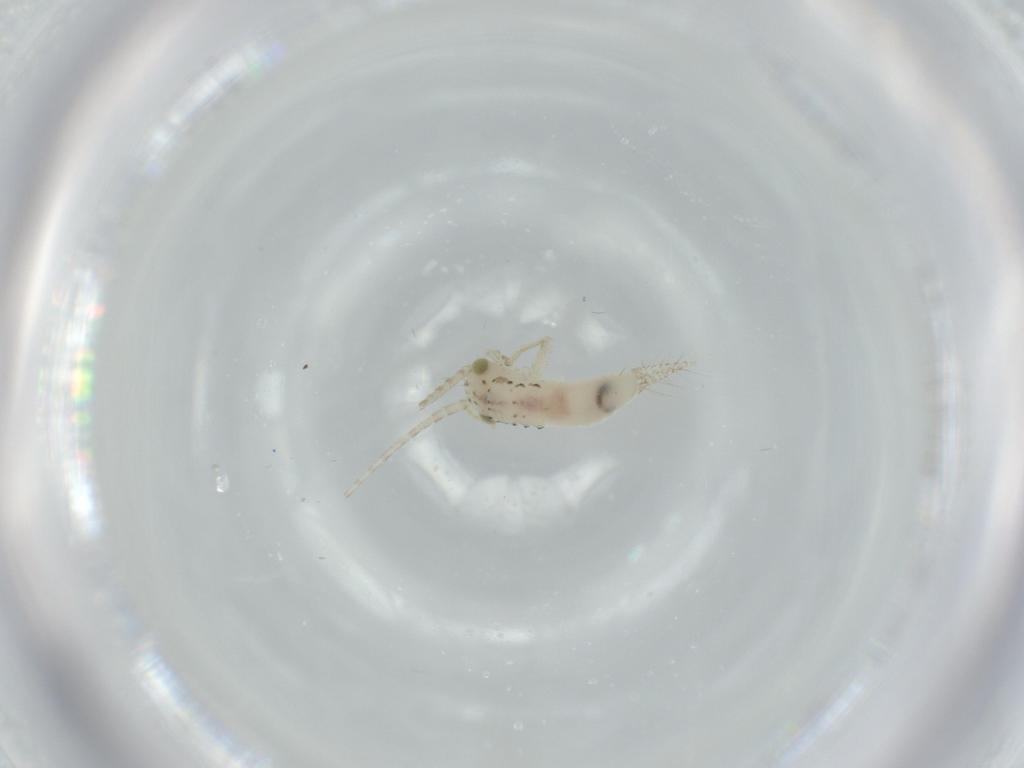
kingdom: Animalia
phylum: Arthropoda
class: Insecta
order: Orthoptera
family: Trigonidiidae
